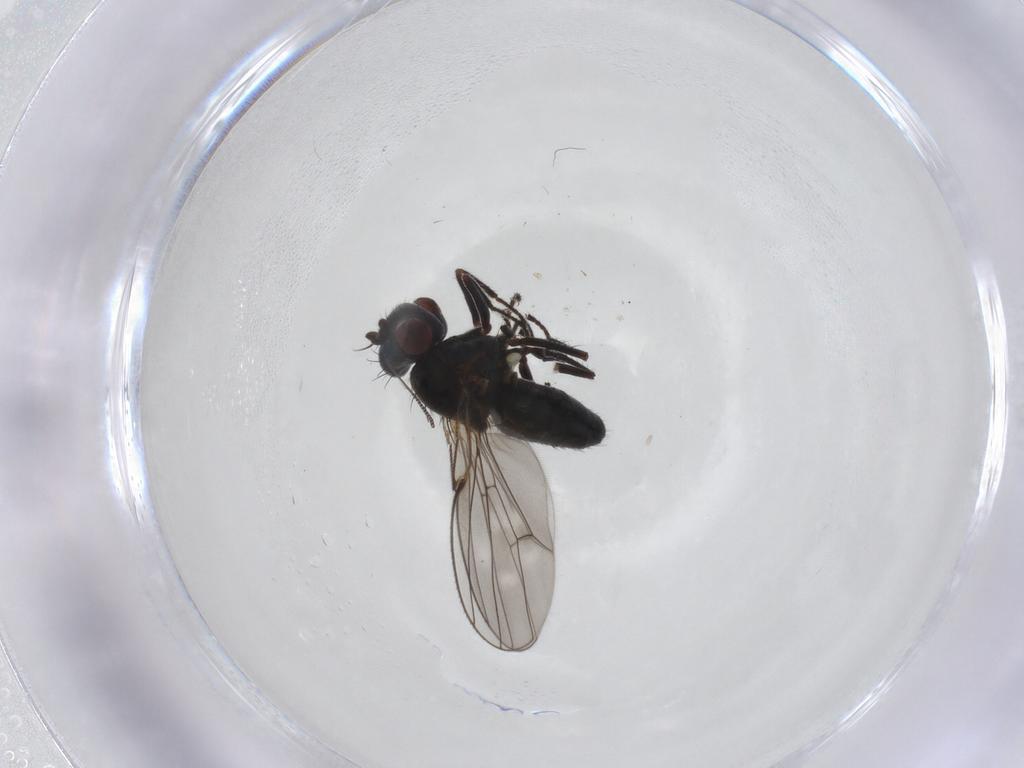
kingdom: Animalia
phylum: Arthropoda
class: Insecta
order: Diptera
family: Ephydridae
